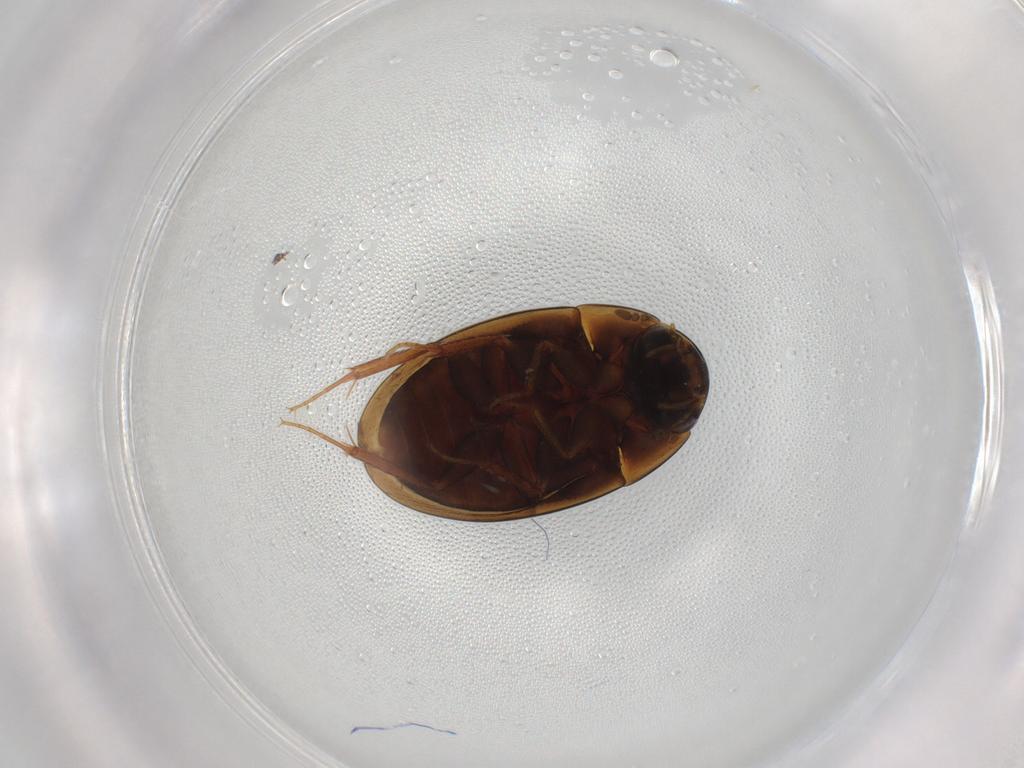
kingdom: Animalia
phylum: Arthropoda
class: Insecta
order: Coleoptera
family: Hydrophilidae
